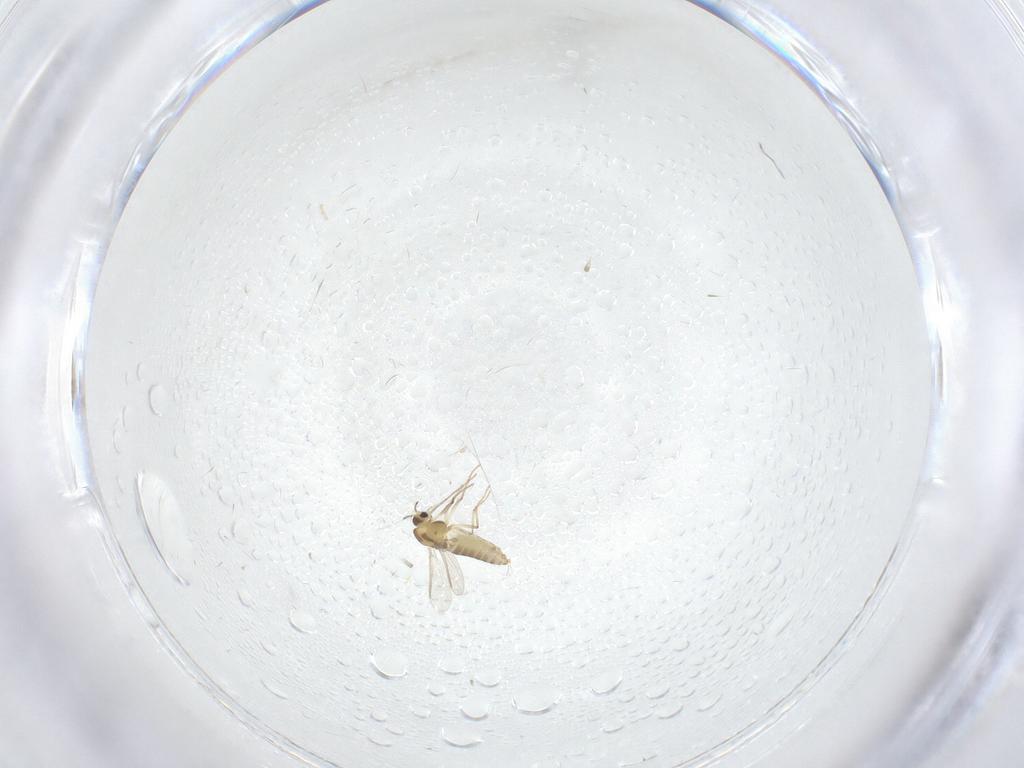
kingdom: Animalia
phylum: Arthropoda
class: Insecta
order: Diptera
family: Chironomidae
